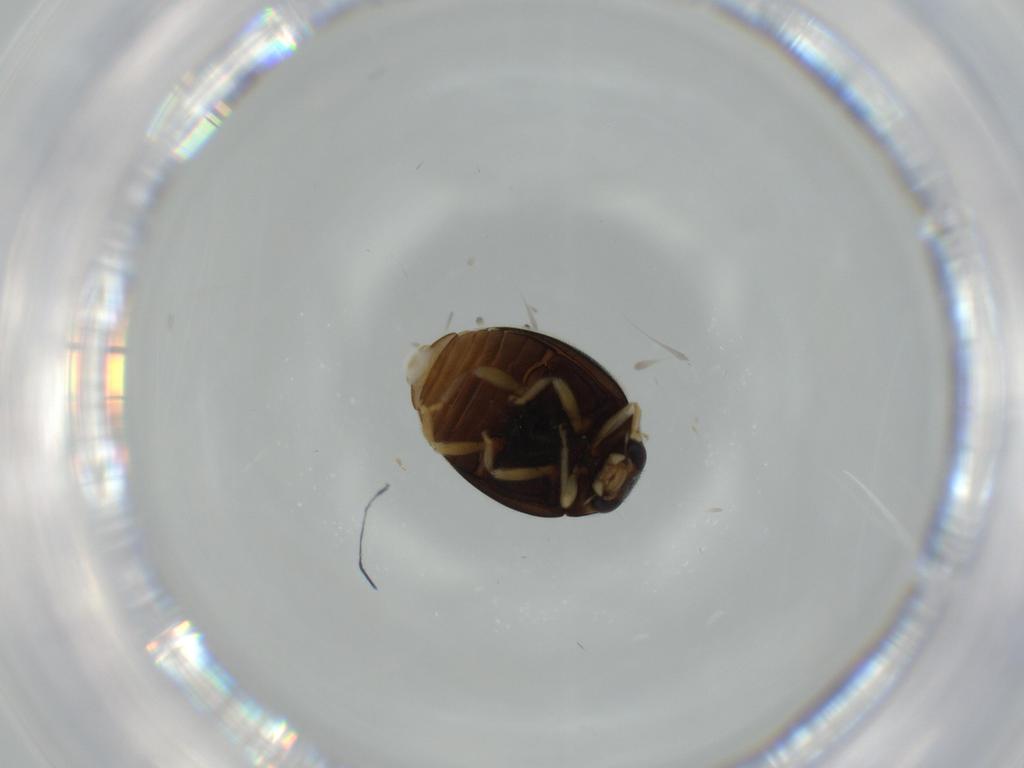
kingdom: Animalia
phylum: Arthropoda
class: Insecta
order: Coleoptera
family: Coccinellidae
